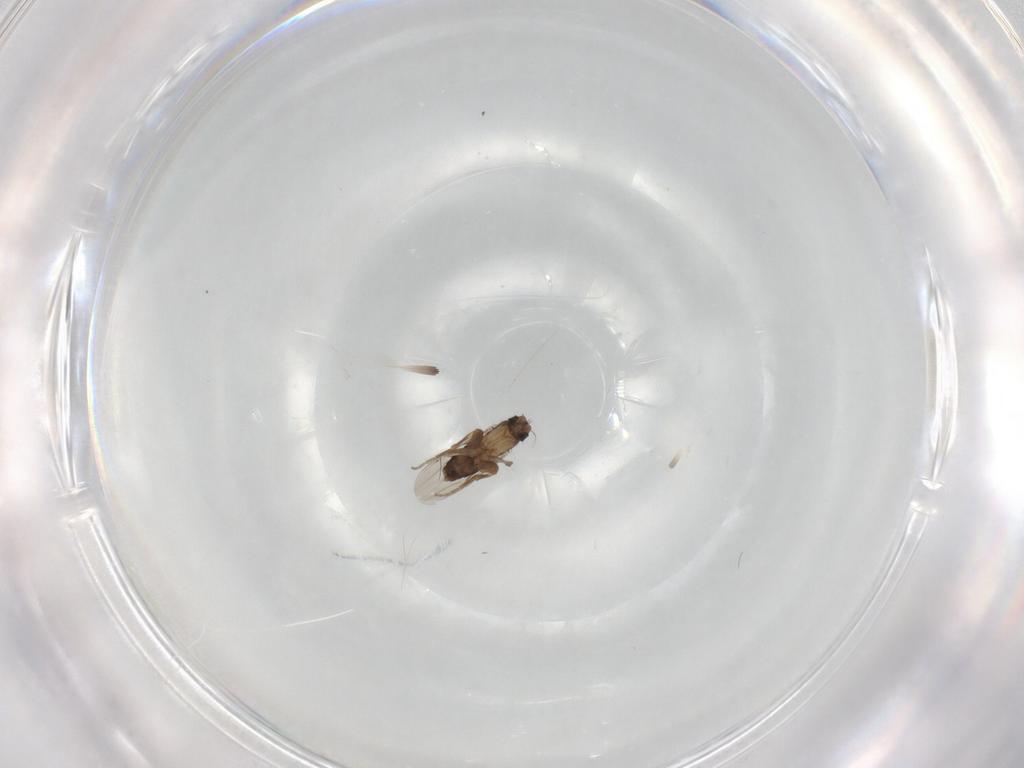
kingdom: Animalia
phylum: Arthropoda
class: Insecta
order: Diptera
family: Phoridae
